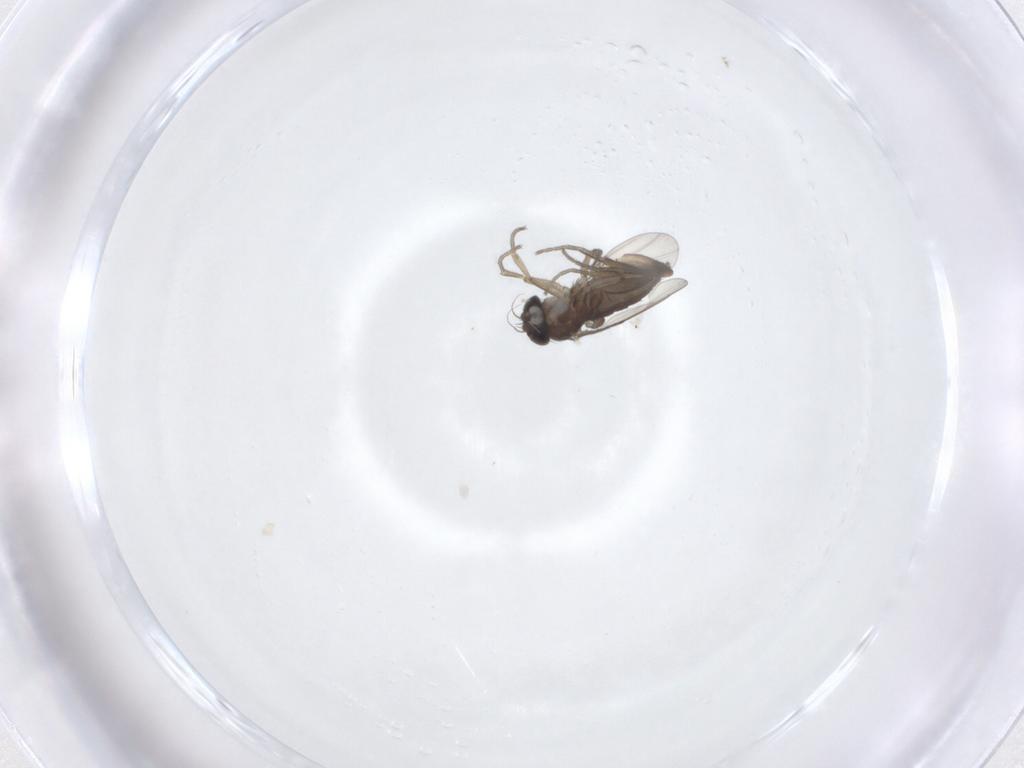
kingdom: Animalia
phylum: Arthropoda
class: Insecta
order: Diptera
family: Phoridae
